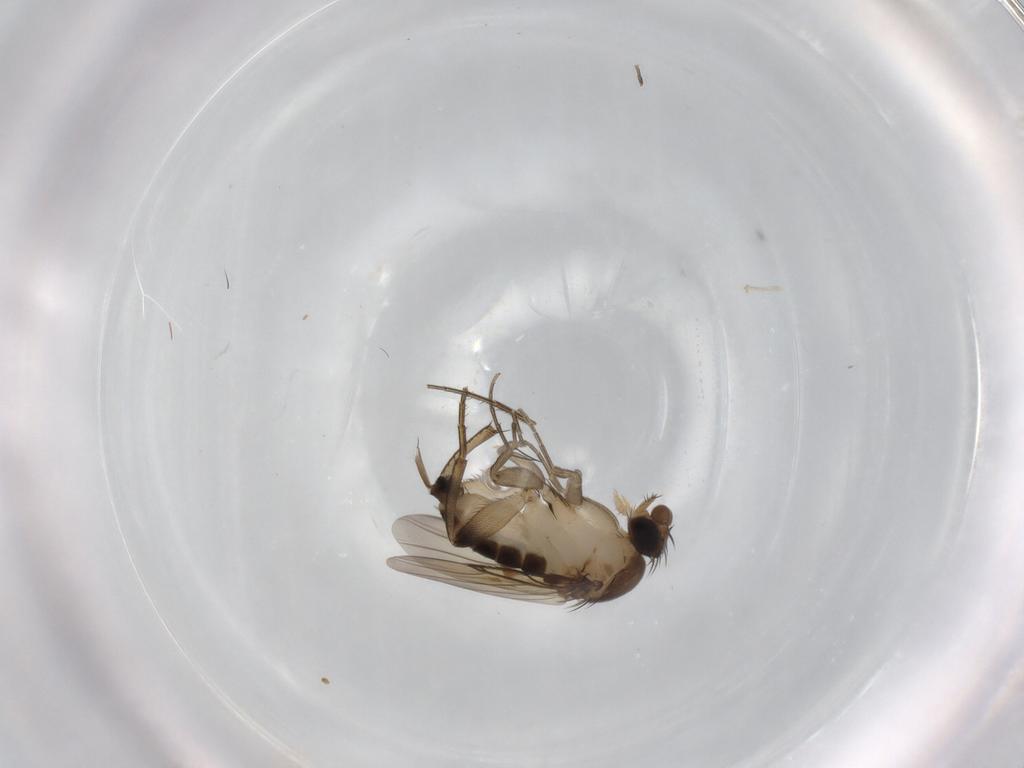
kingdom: Animalia
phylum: Arthropoda
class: Insecta
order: Diptera
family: Phoridae
